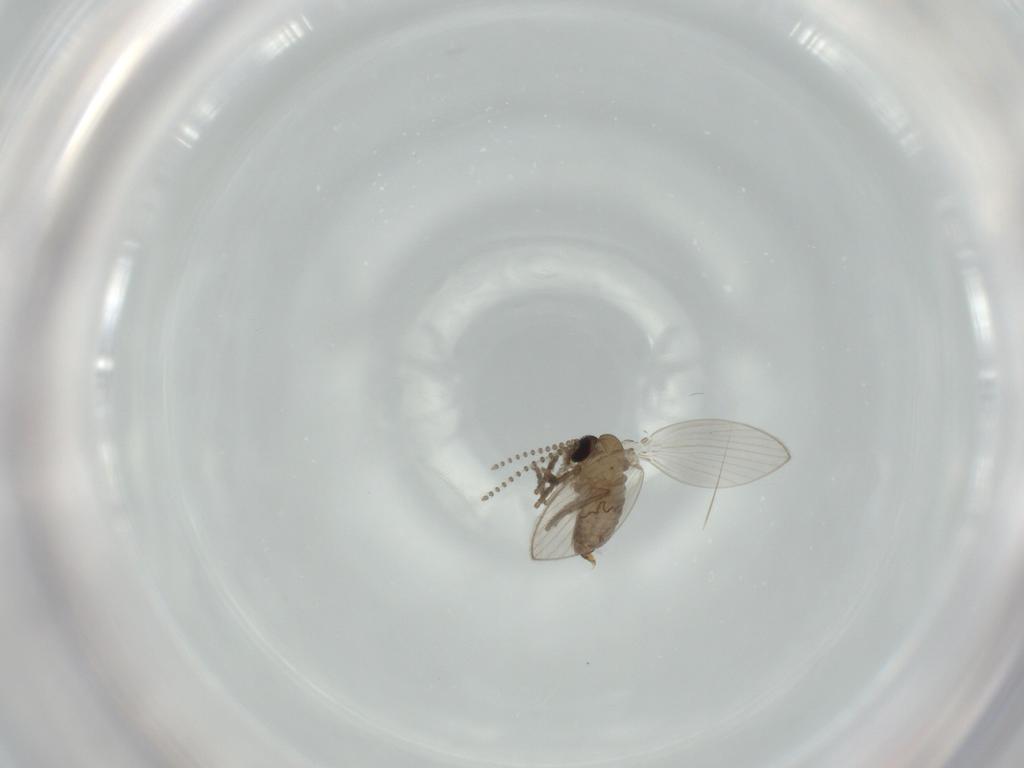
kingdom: Animalia
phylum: Arthropoda
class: Insecta
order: Diptera
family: Psychodidae
